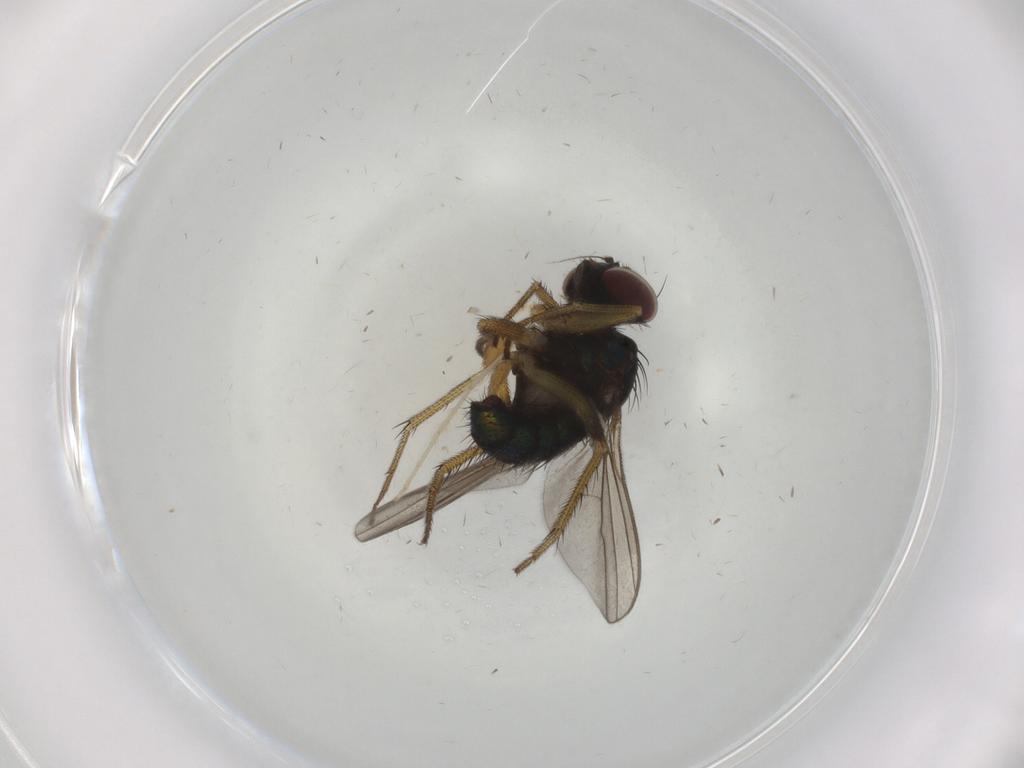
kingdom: Animalia
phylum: Arthropoda
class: Insecta
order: Diptera
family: Dolichopodidae
